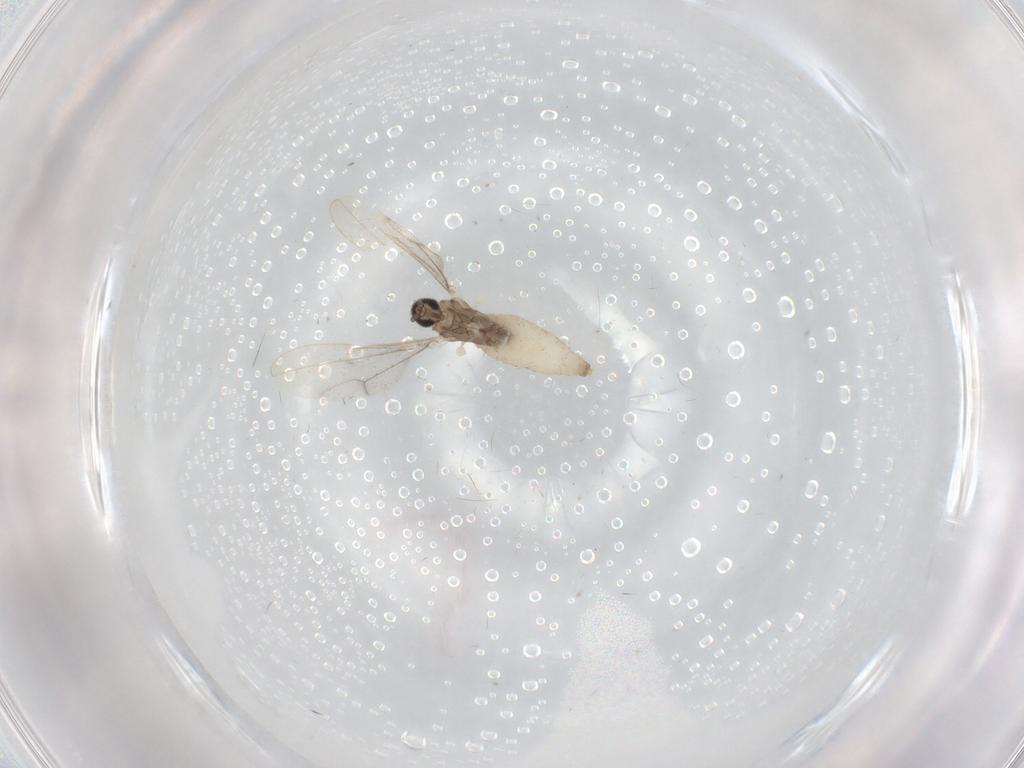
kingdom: Animalia
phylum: Arthropoda
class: Insecta
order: Diptera
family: Cecidomyiidae
